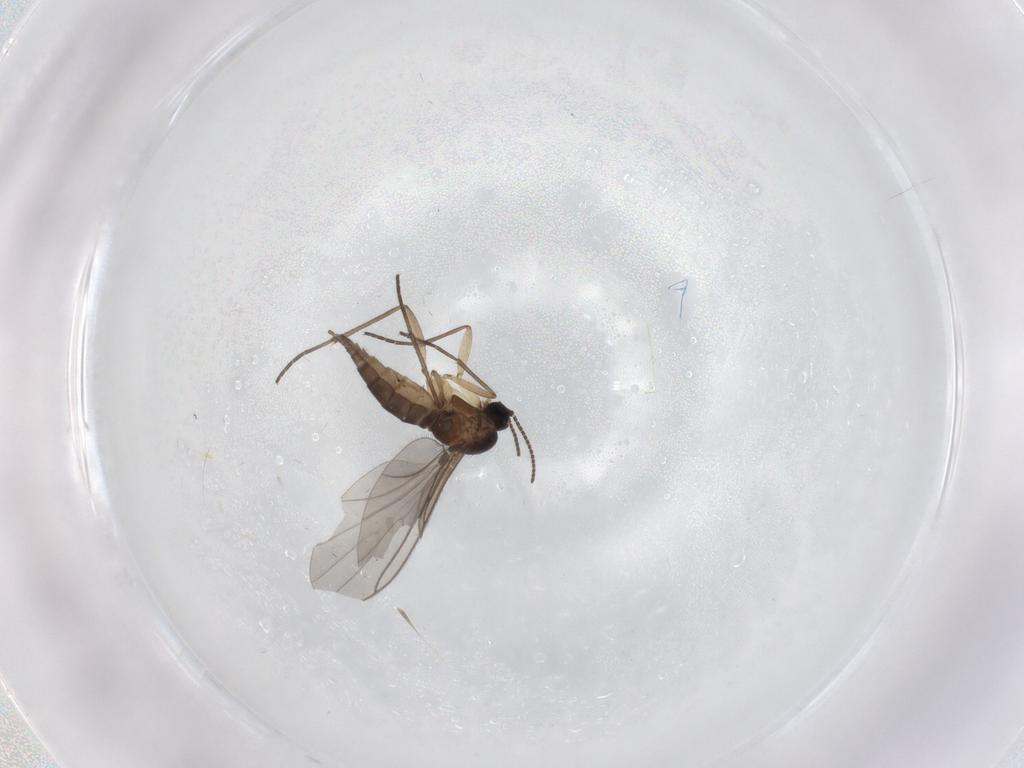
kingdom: Animalia
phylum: Arthropoda
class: Insecta
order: Diptera
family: Sciaridae
